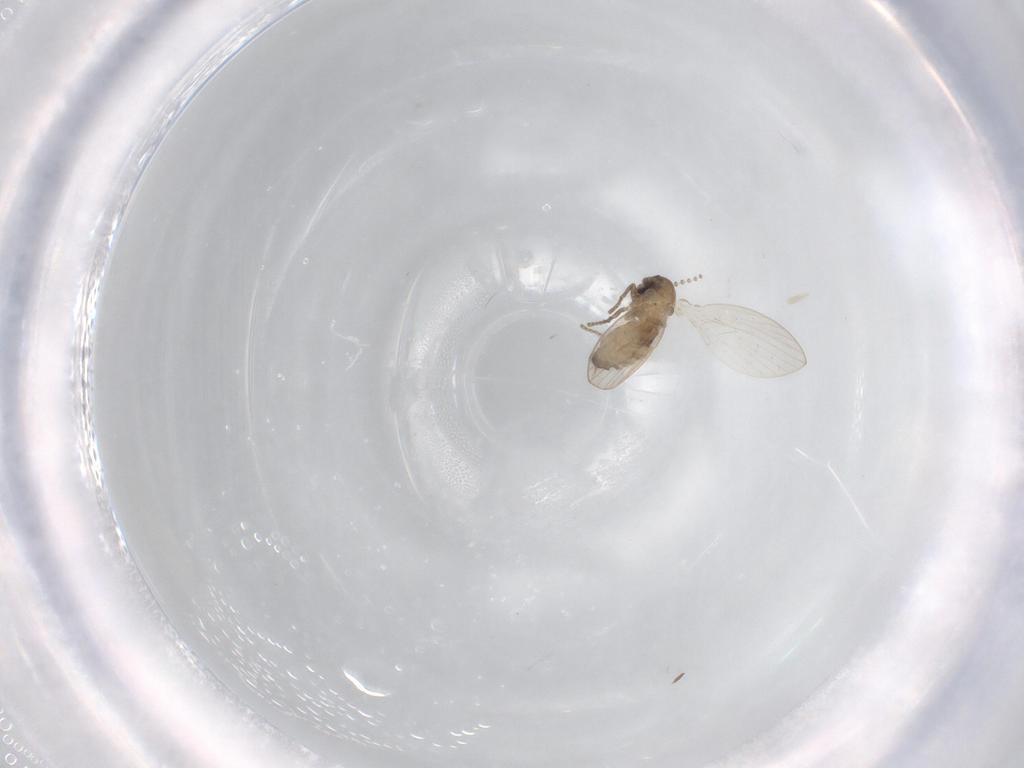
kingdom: Animalia
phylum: Arthropoda
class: Insecta
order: Diptera
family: Psychodidae
